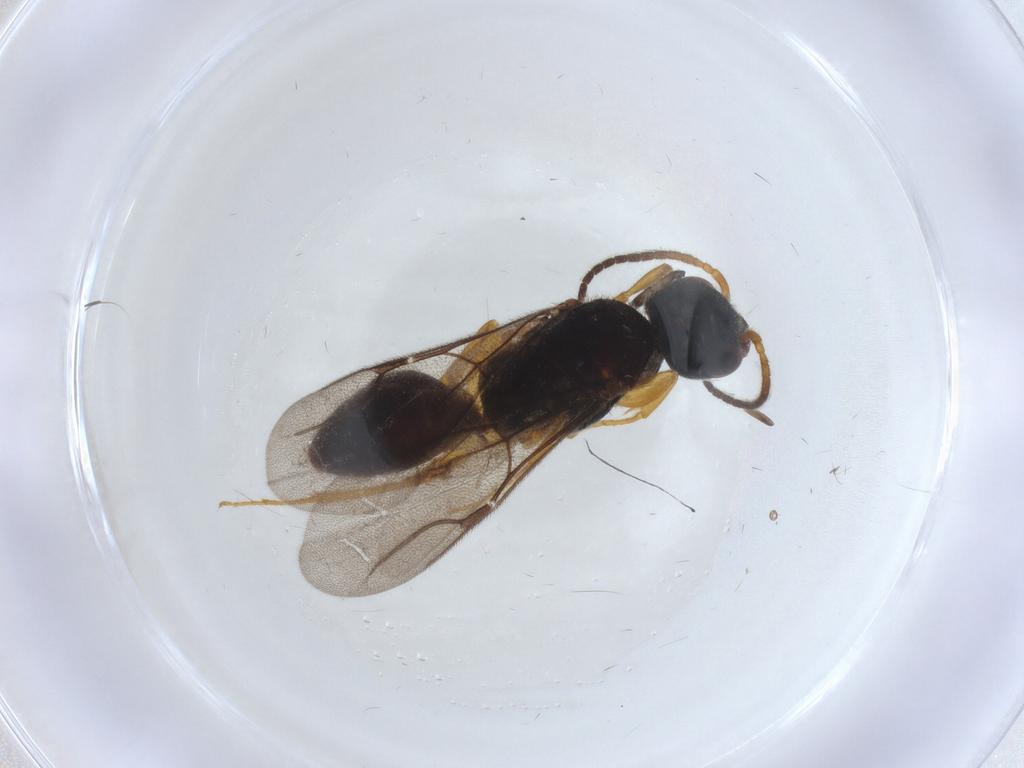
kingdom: Animalia
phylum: Arthropoda
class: Insecta
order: Hymenoptera
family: Bethylidae
